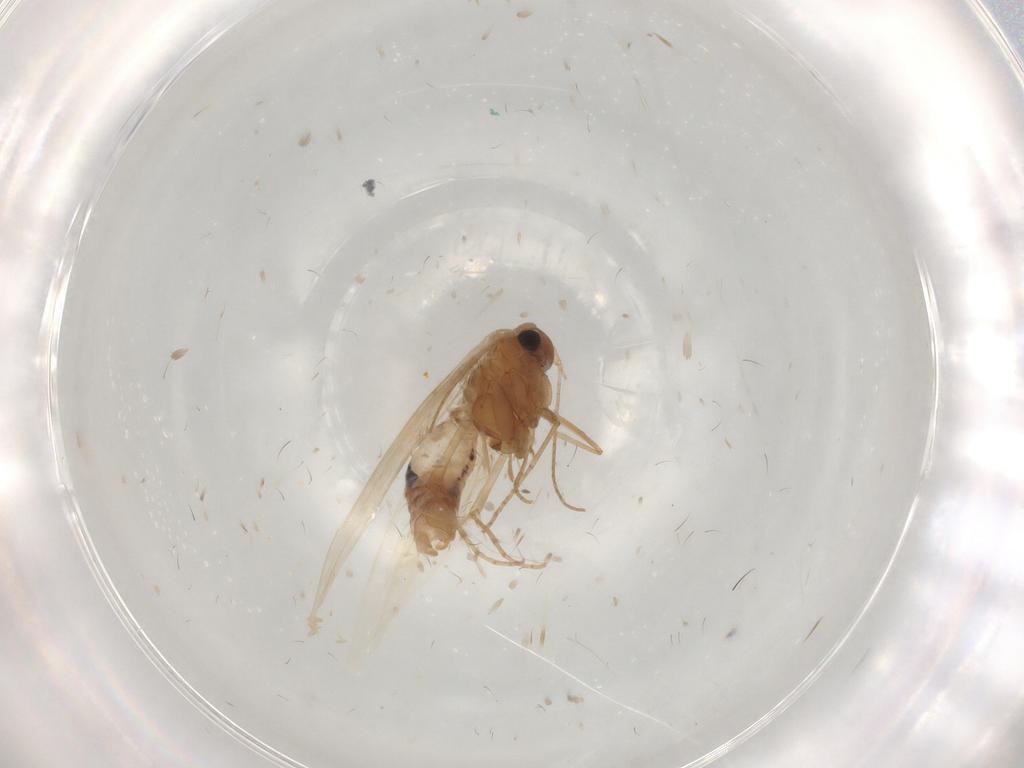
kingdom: Animalia
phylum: Arthropoda
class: Insecta
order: Lepidoptera
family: Bucculatricidae
